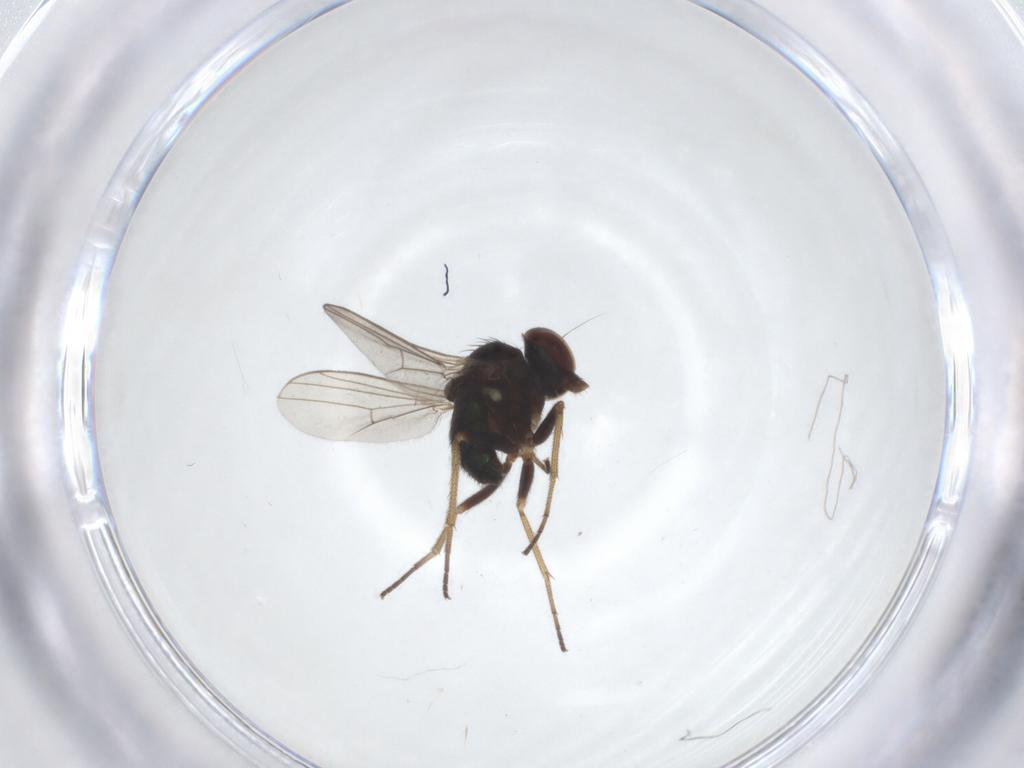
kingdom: Animalia
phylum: Arthropoda
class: Insecta
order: Diptera
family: Dolichopodidae
